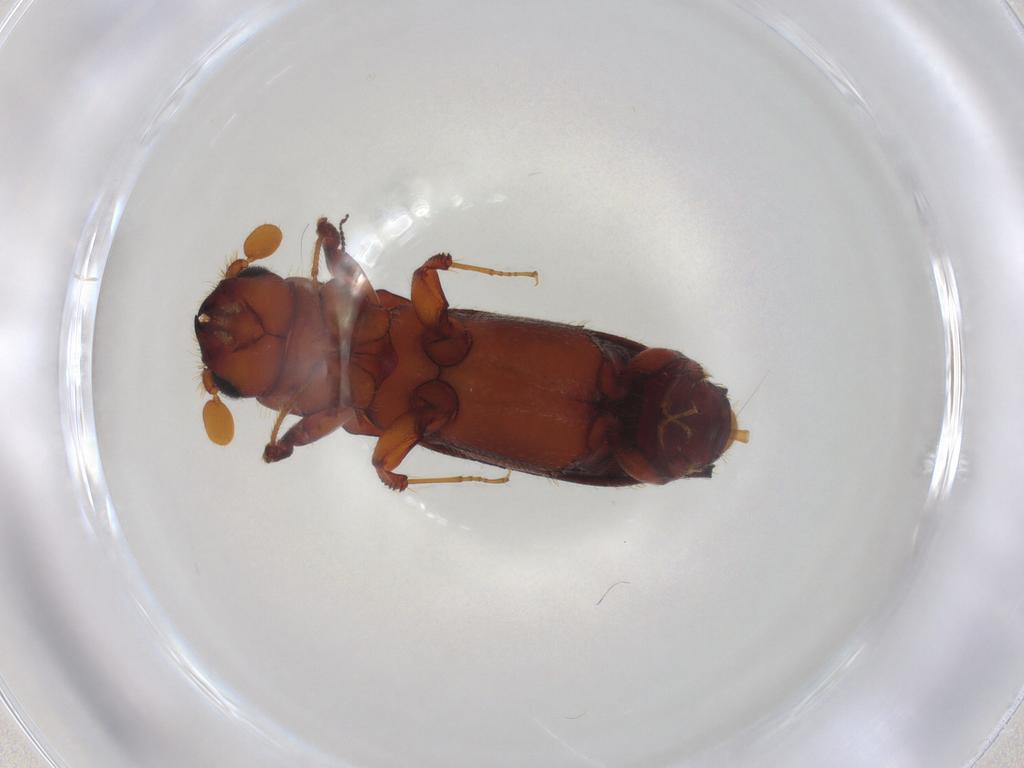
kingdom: Animalia
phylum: Arthropoda
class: Insecta
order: Coleoptera
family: Curculionidae
